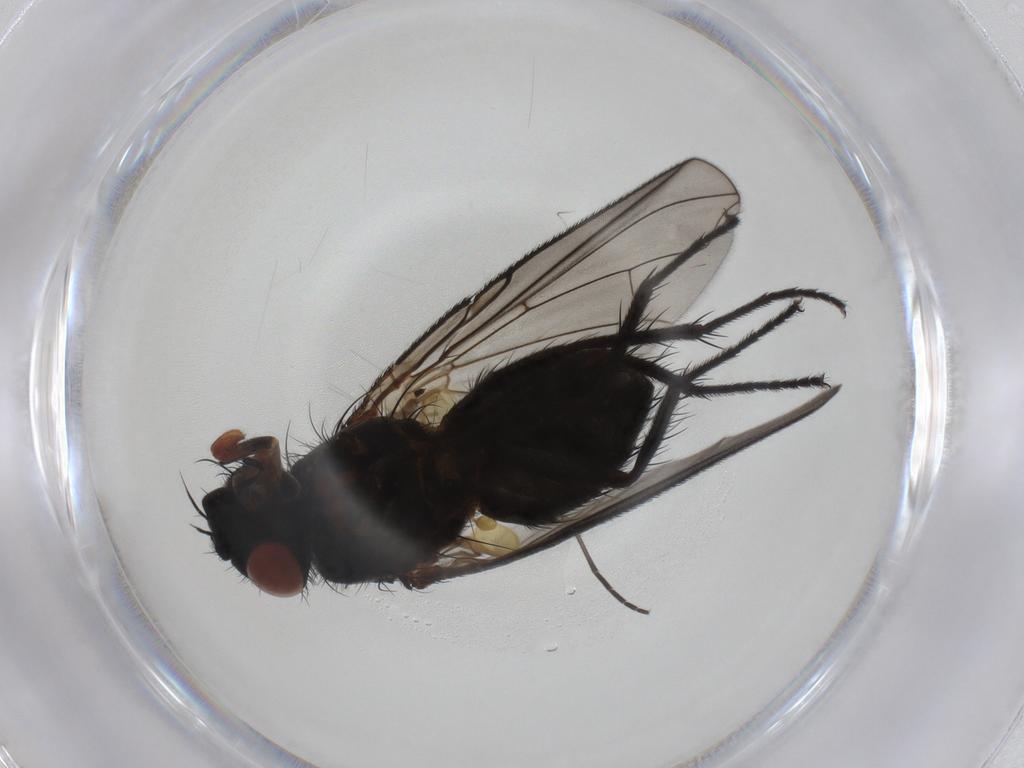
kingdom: Animalia
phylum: Arthropoda
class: Insecta
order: Diptera
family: Tachinidae
